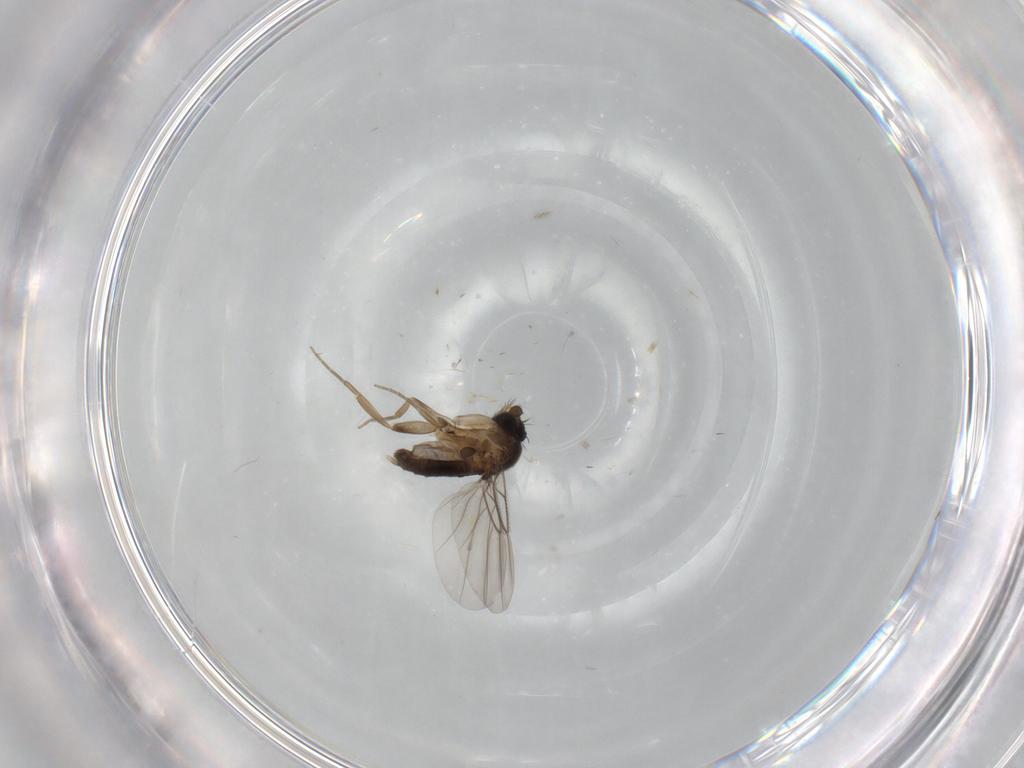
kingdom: Animalia
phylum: Arthropoda
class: Insecta
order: Diptera
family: Phoridae
